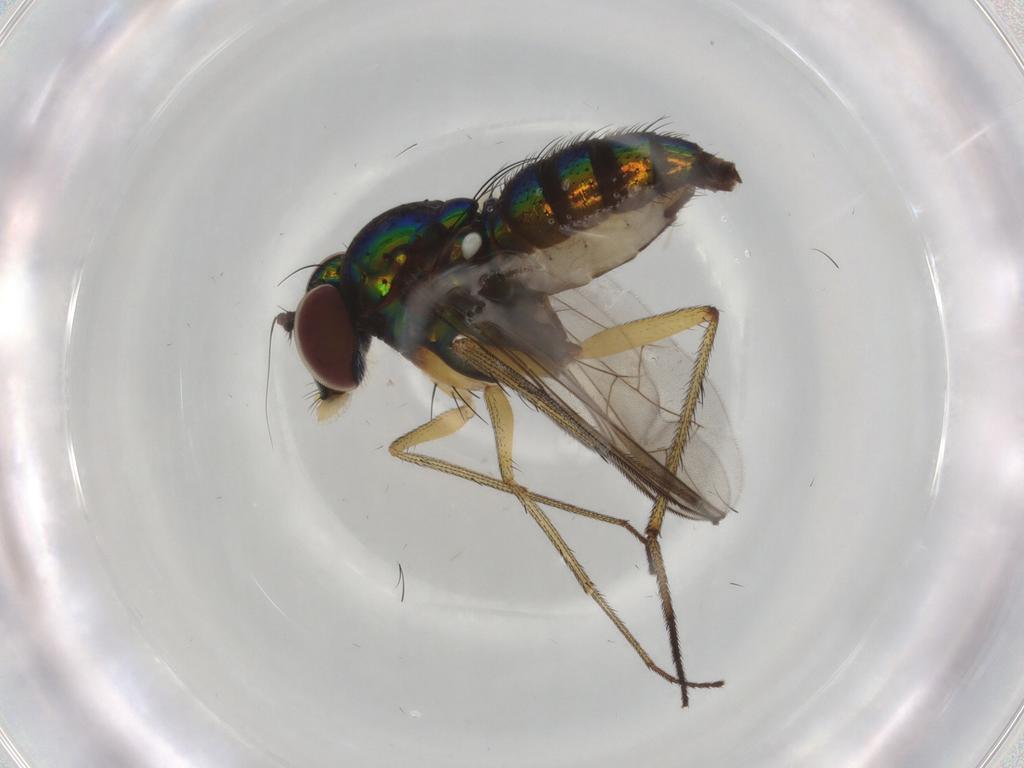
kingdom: Animalia
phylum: Arthropoda
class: Insecta
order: Diptera
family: Dolichopodidae
